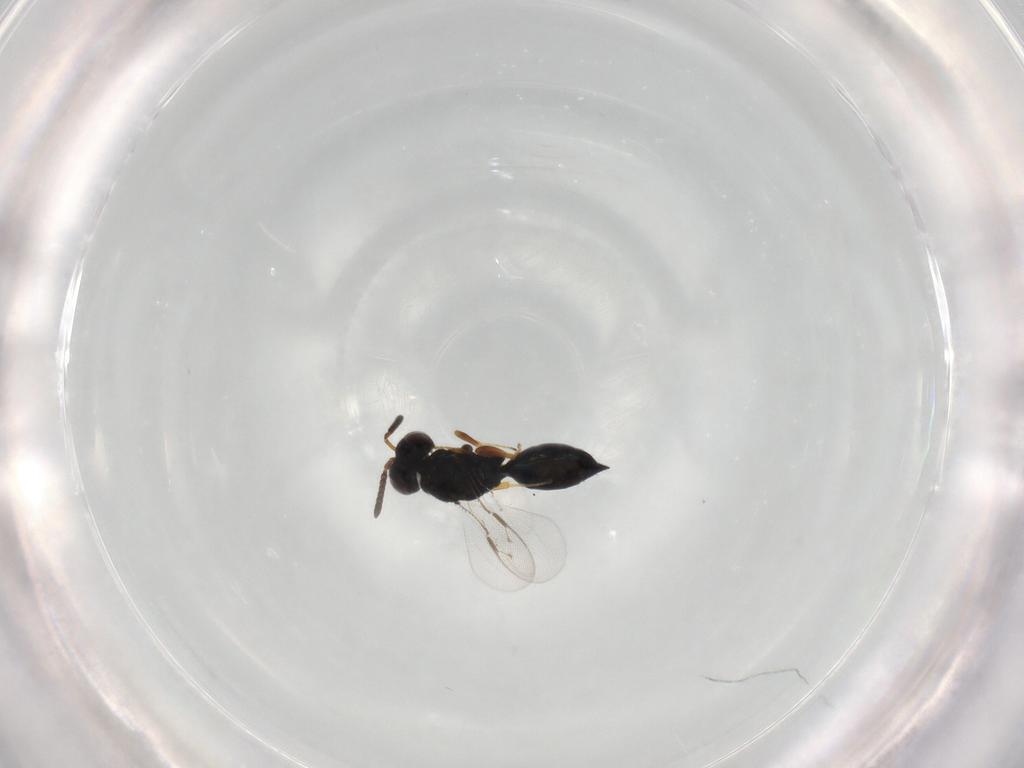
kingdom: Animalia
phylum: Arthropoda
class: Insecta
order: Hymenoptera
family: Pteromalidae
